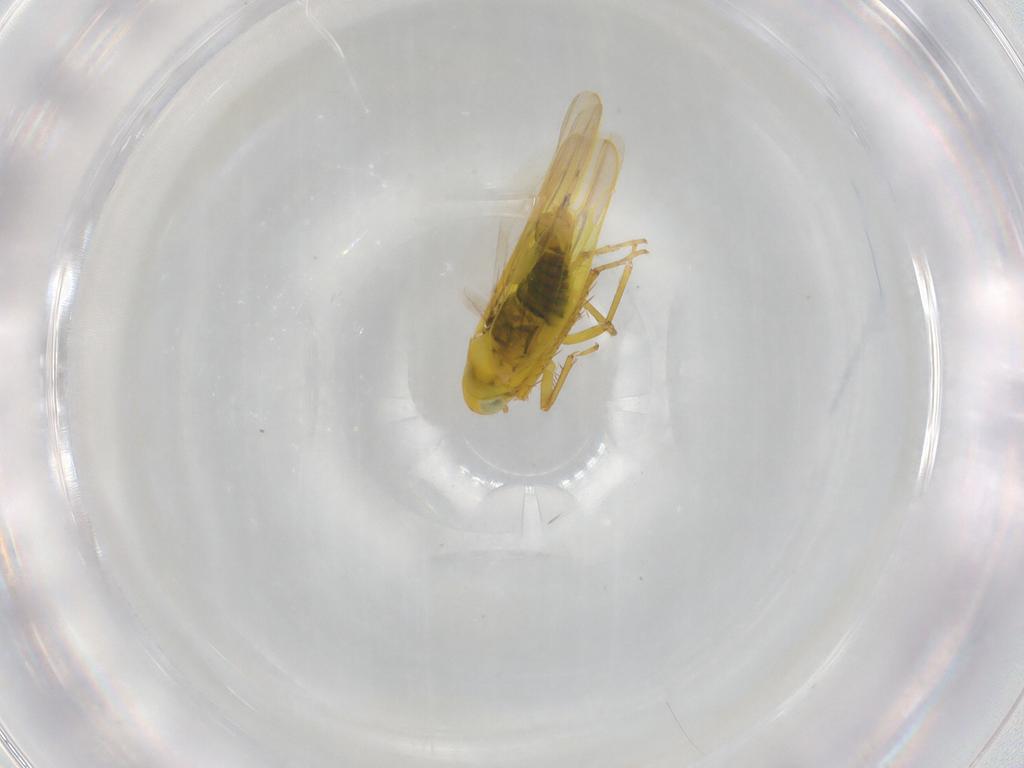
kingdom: Animalia
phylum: Arthropoda
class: Insecta
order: Hemiptera
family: Cicadellidae
